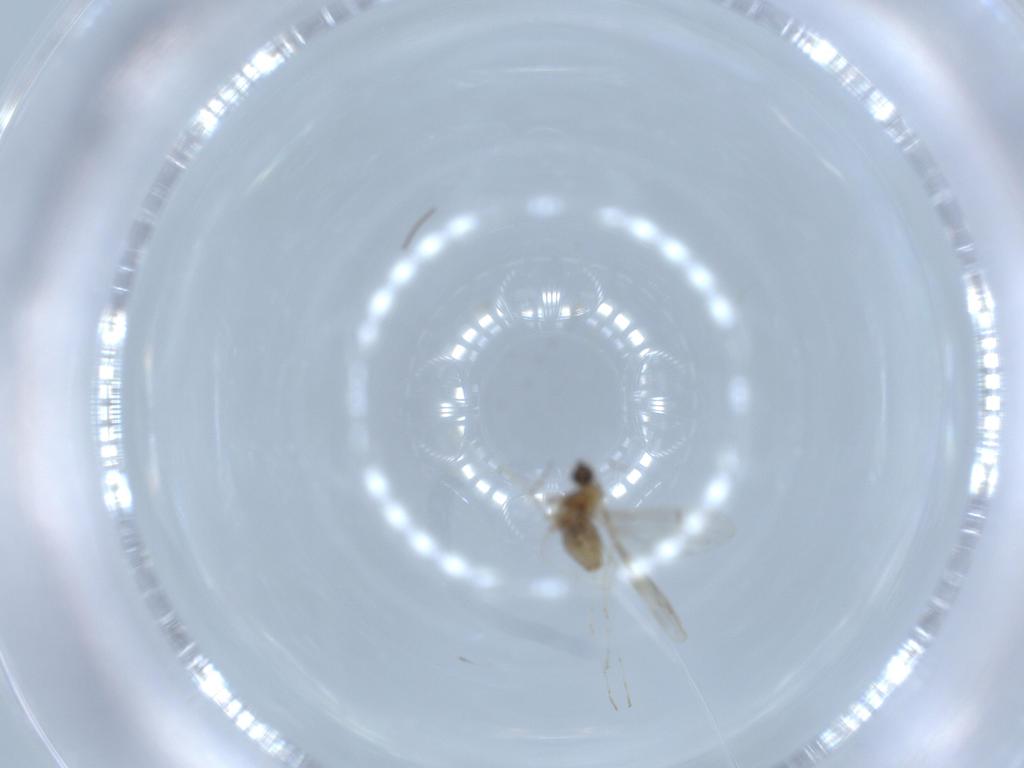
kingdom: Animalia
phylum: Arthropoda
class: Insecta
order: Diptera
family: Cecidomyiidae
